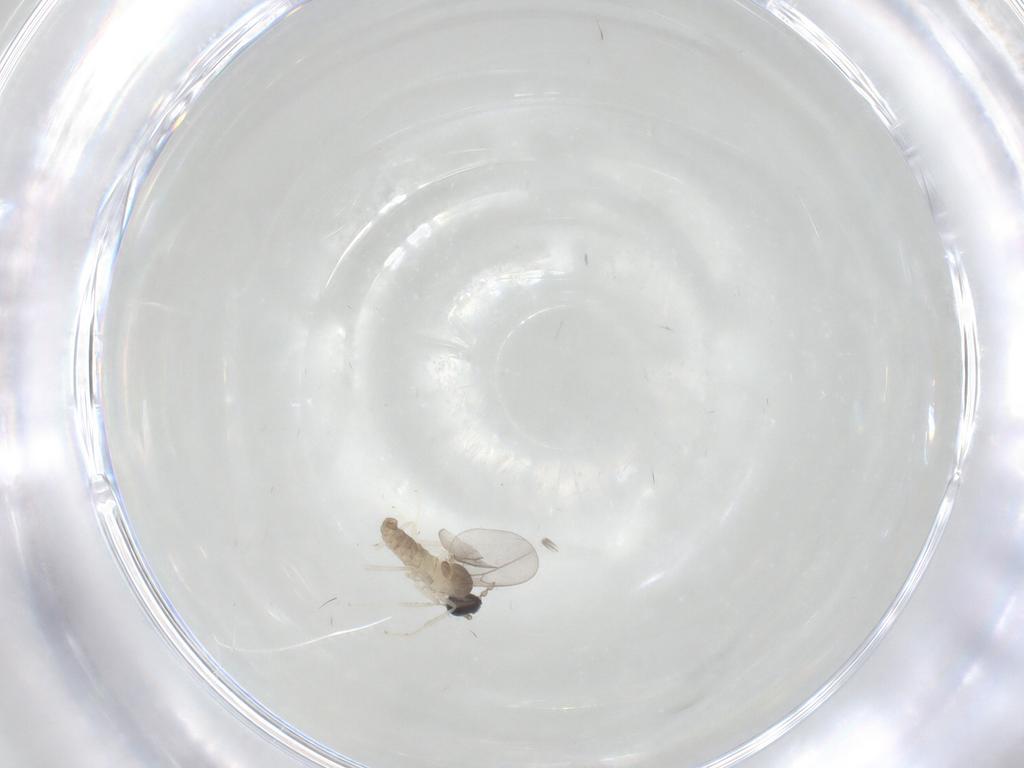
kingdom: Animalia
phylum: Arthropoda
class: Insecta
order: Diptera
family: Cecidomyiidae
